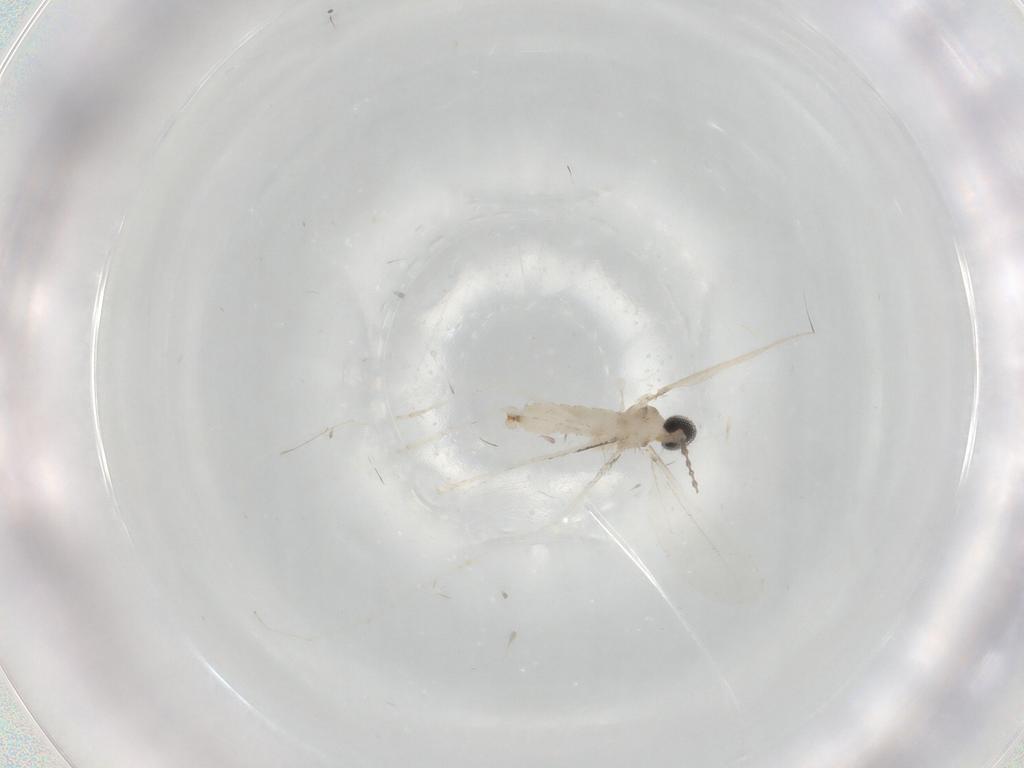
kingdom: Animalia
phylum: Arthropoda
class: Insecta
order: Diptera
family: Cecidomyiidae
